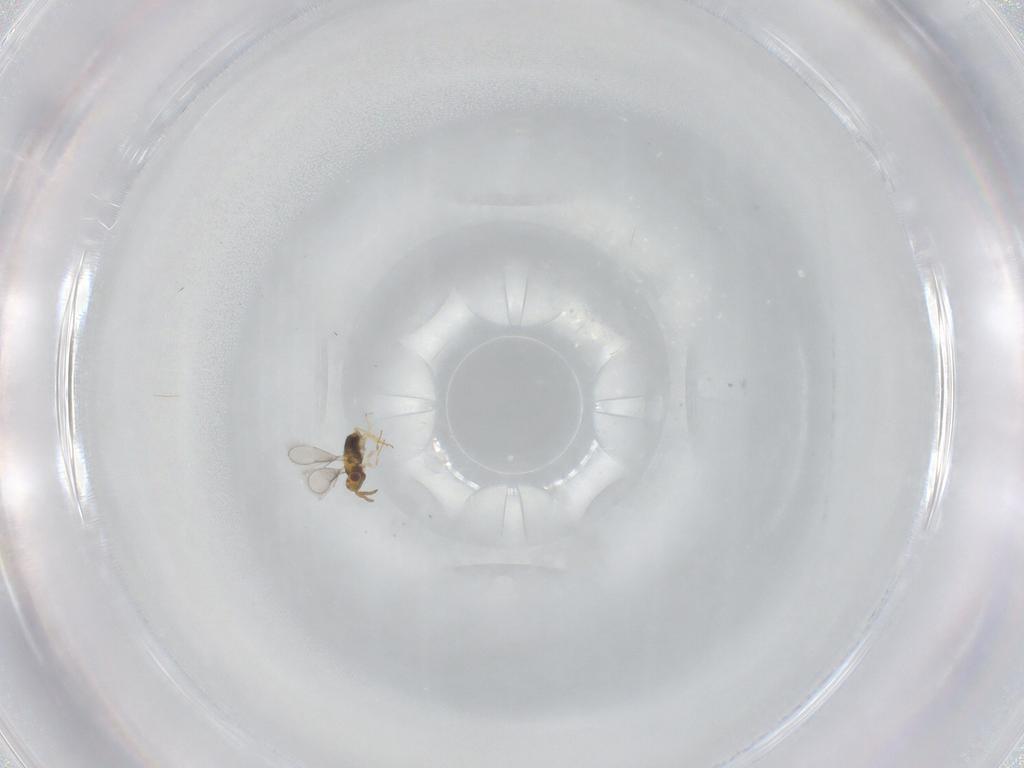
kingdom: Animalia
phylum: Arthropoda
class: Insecta
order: Hymenoptera
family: Aphelinidae
